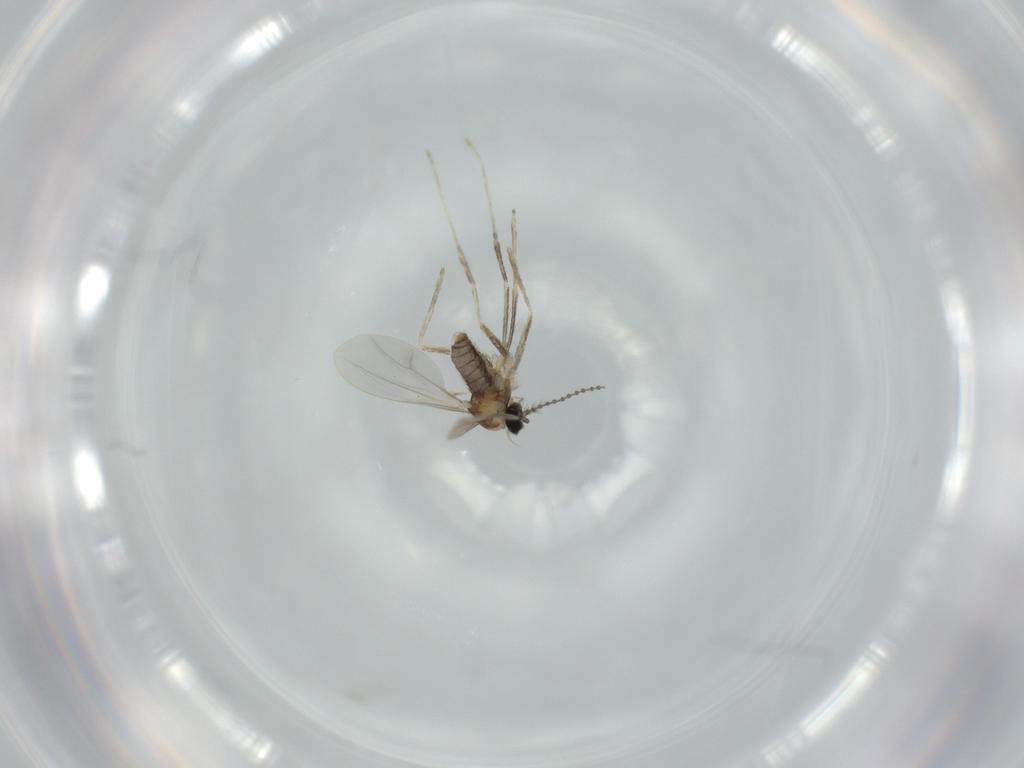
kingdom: Animalia
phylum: Arthropoda
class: Insecta
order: Diptera
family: Cecidomyiidae
